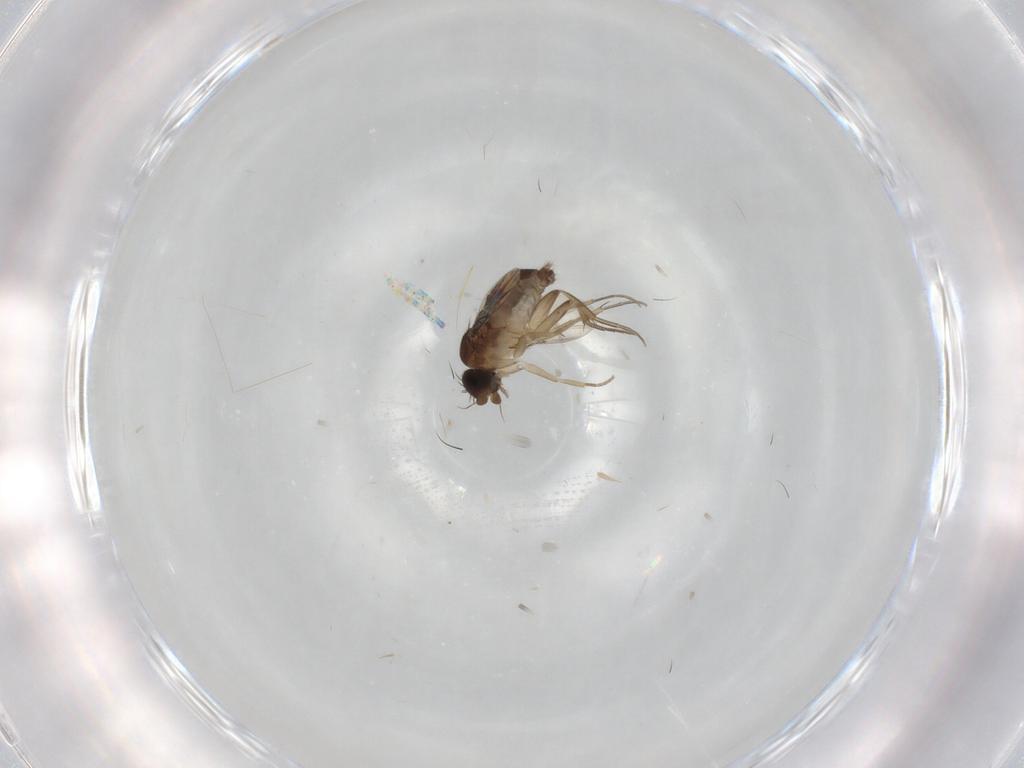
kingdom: Animalia
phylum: Arthropoda
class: Insecta
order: Diptera
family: Phoridae
